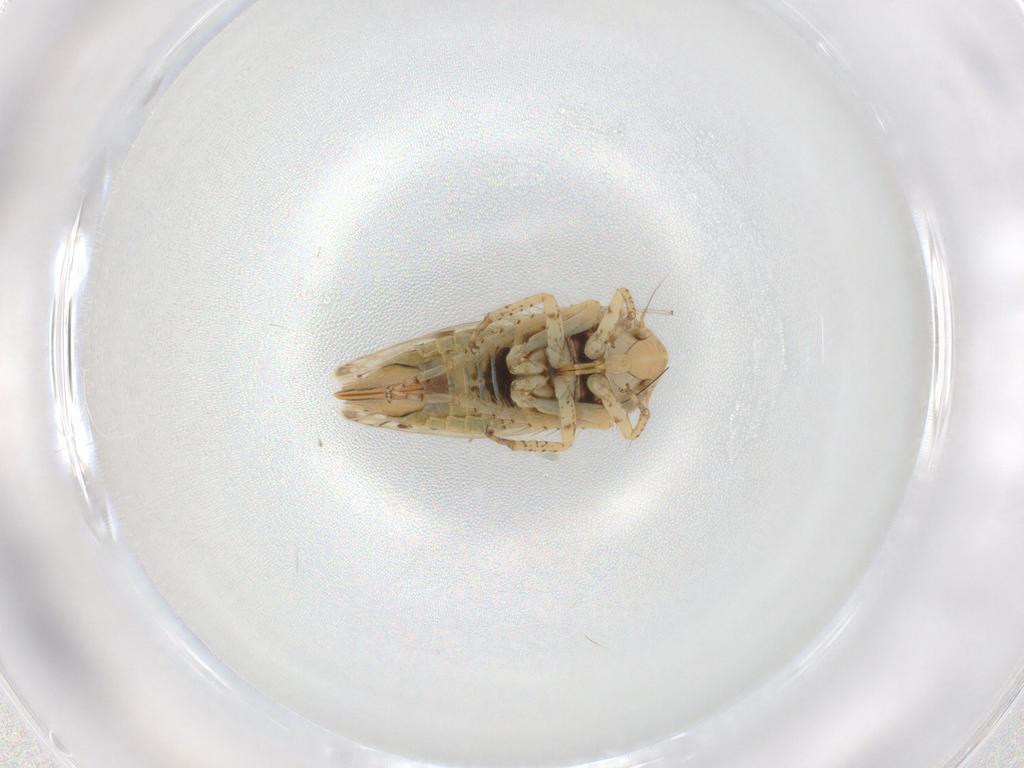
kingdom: Animalia
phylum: Arthropoda
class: Insecta
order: Hemiptera
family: Cicadellidae
